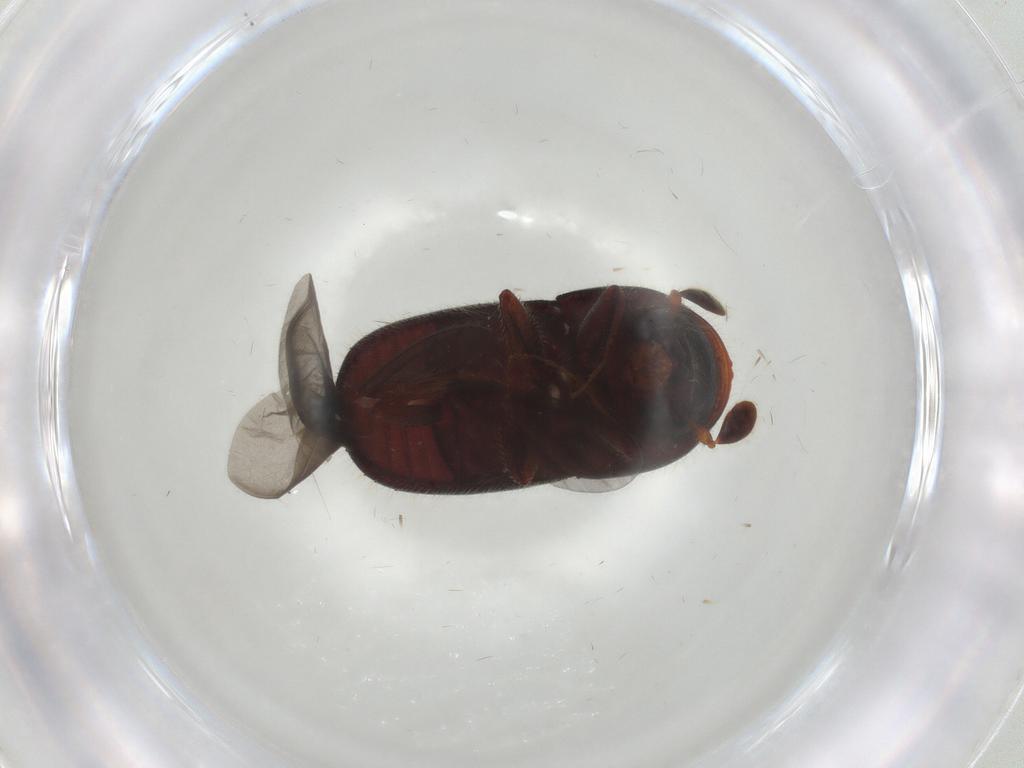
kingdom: Animalia
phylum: Arthropoda
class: Insecta
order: Coleoptera
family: Curculionidae
